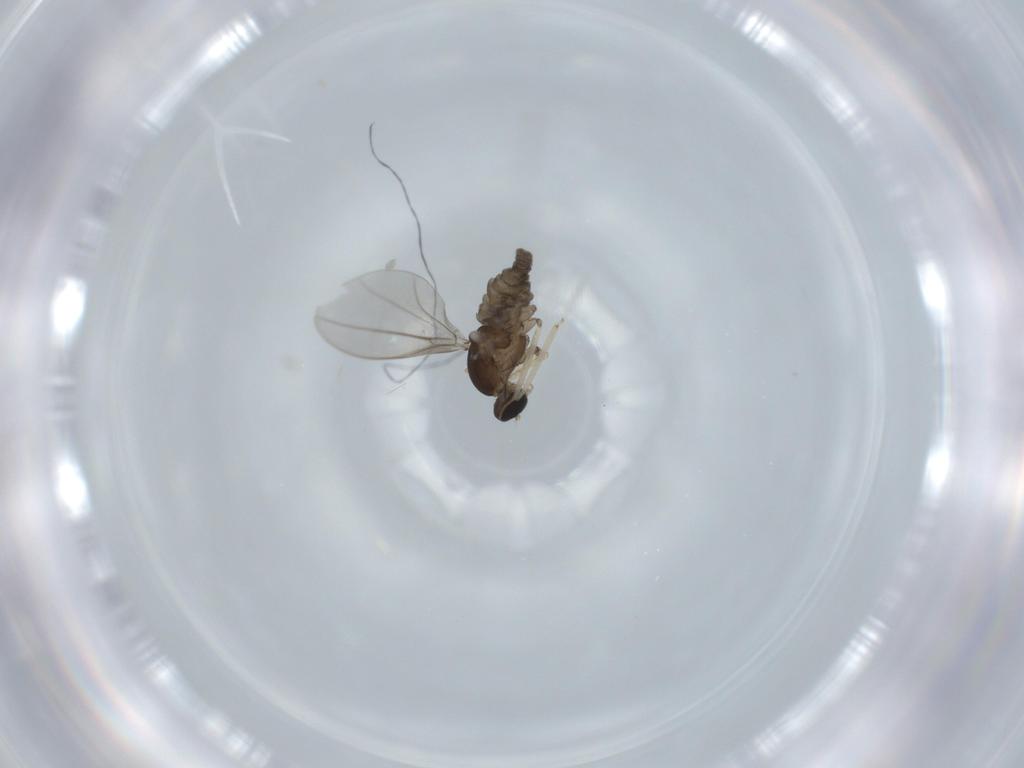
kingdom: Animalia
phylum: Arthropoda
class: Insecta
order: Diptera
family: Cecidomyiidae
